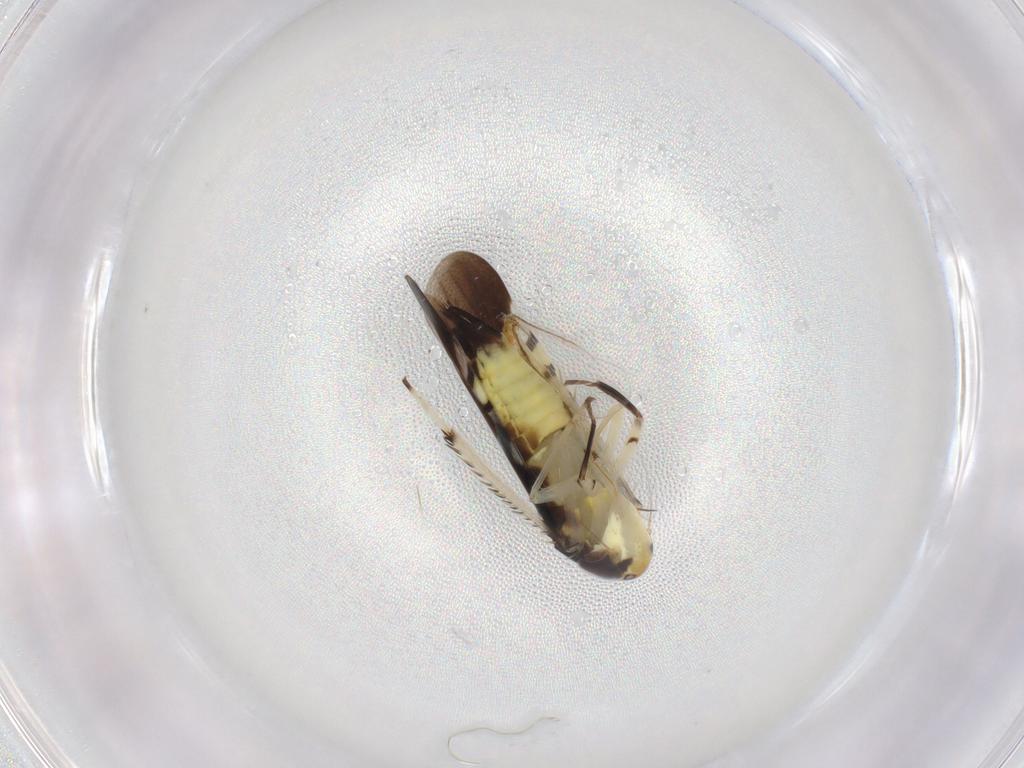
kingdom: Animalia
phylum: Arthropoda
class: Insecta
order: Hemiptera
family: Cicadellidae
